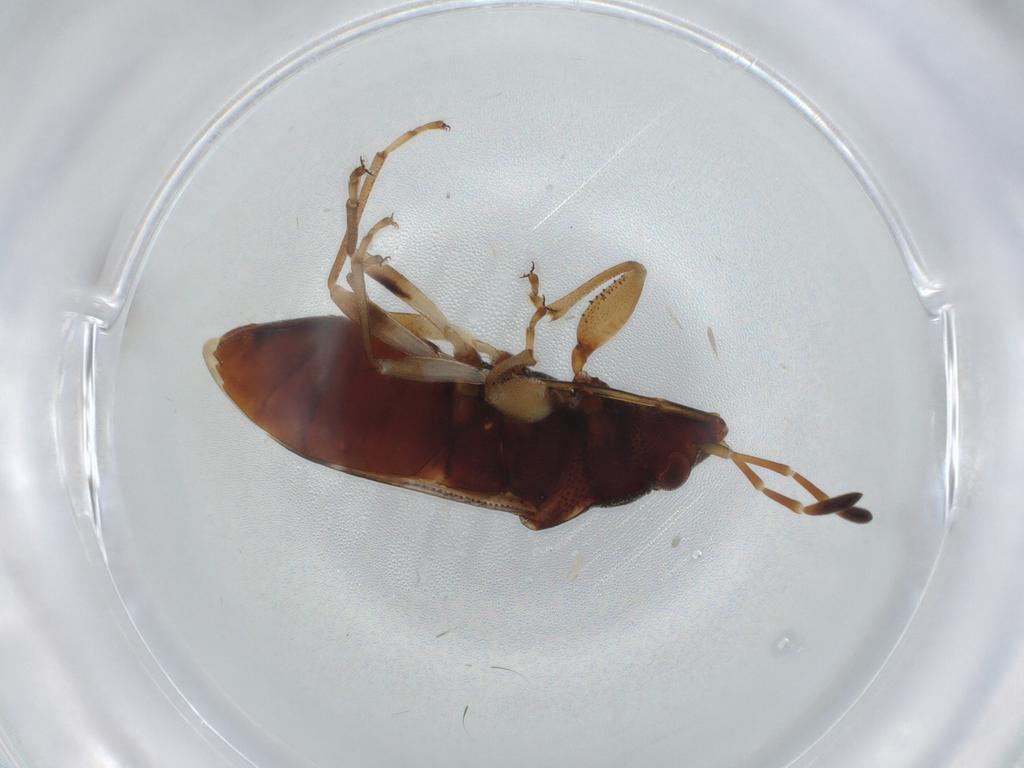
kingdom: Animalia
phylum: Arthropoda
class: Insecta
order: Hemiptera
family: Rhyparochromidae
